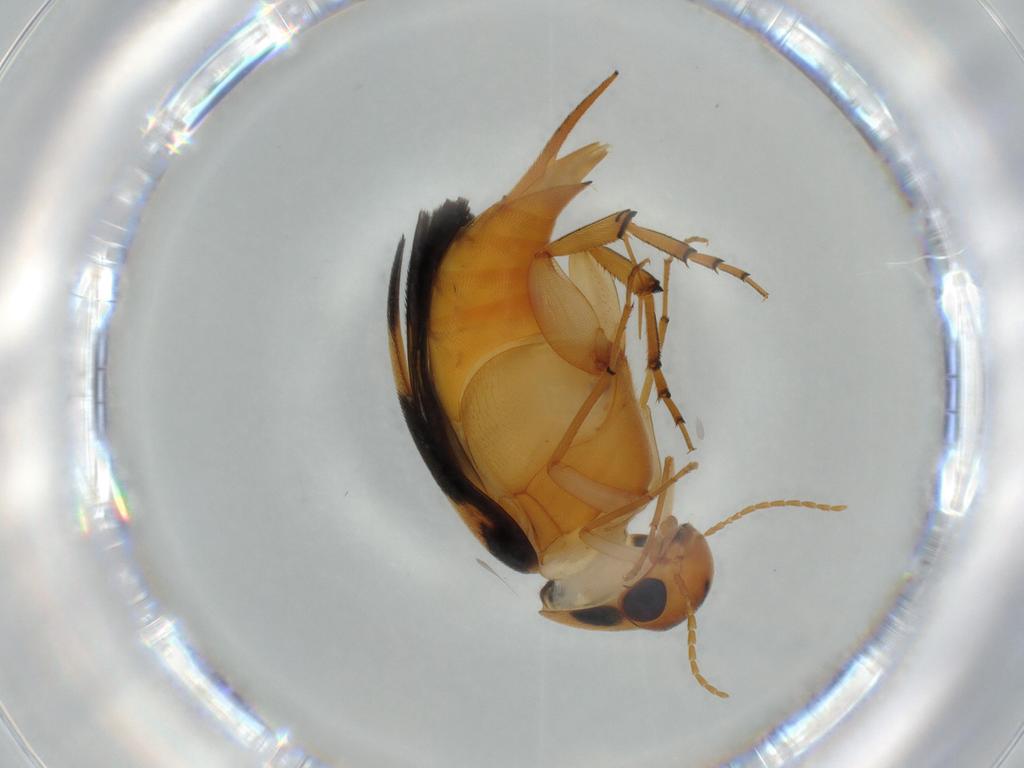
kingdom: Animalia
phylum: Arthropoda
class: Insecta
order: Coleoptera
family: Mordellidae
